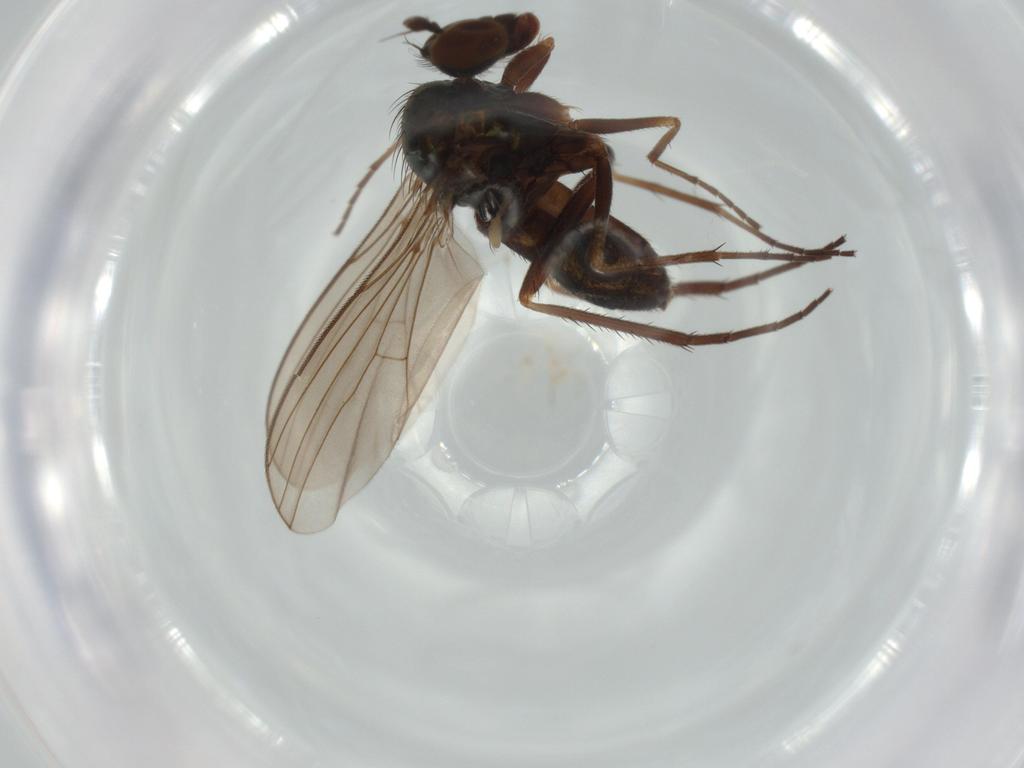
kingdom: Animalia
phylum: Arthropoda
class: Insecta
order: Diptera
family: Dolichopodidae
